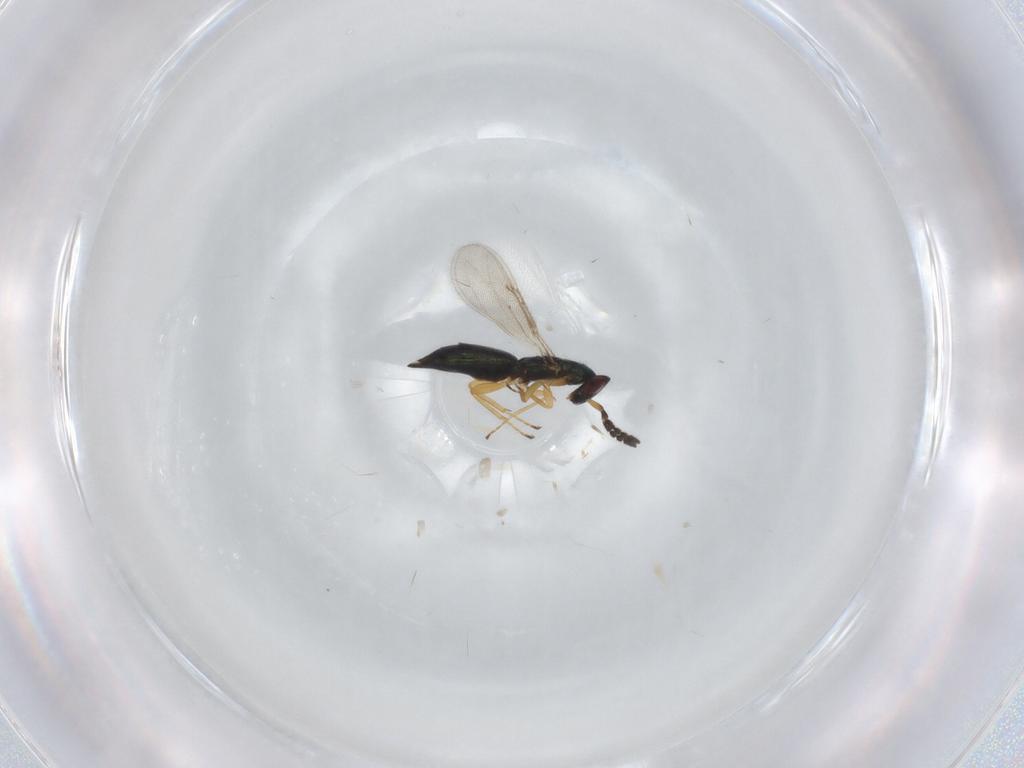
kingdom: Animalia
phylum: Arthropoda
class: Insecta
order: Hymenoptera
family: Eulophidae
